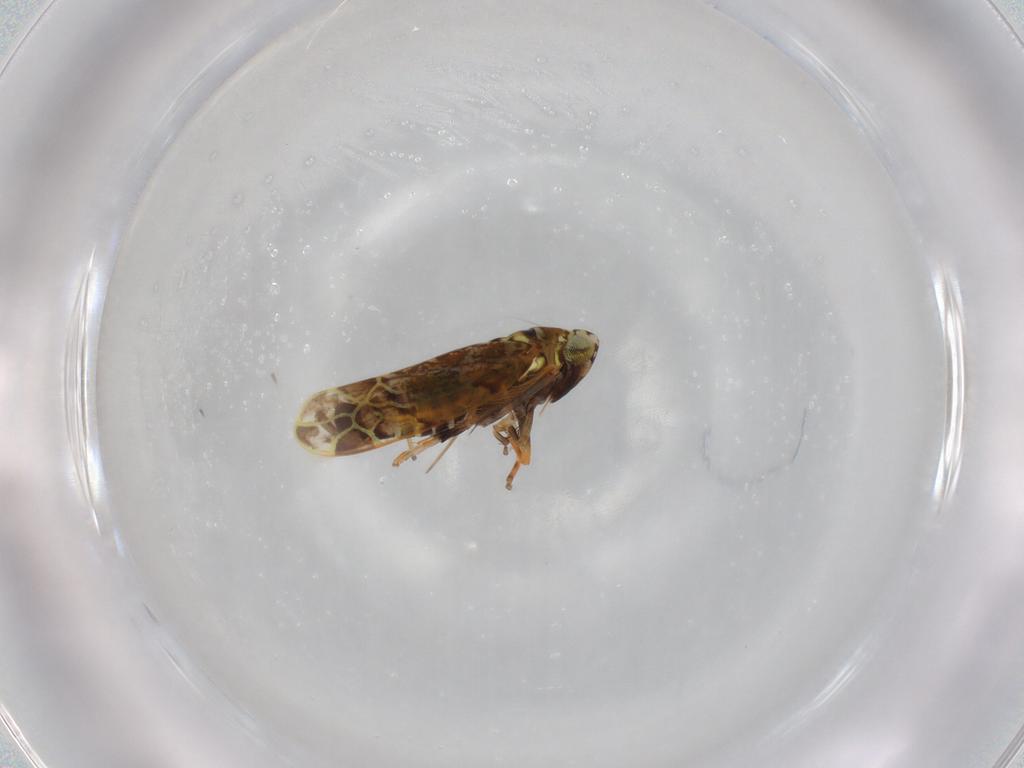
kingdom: Animalia
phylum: Arthropoda
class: Insecta
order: Hemiptera
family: Cicadellidae
